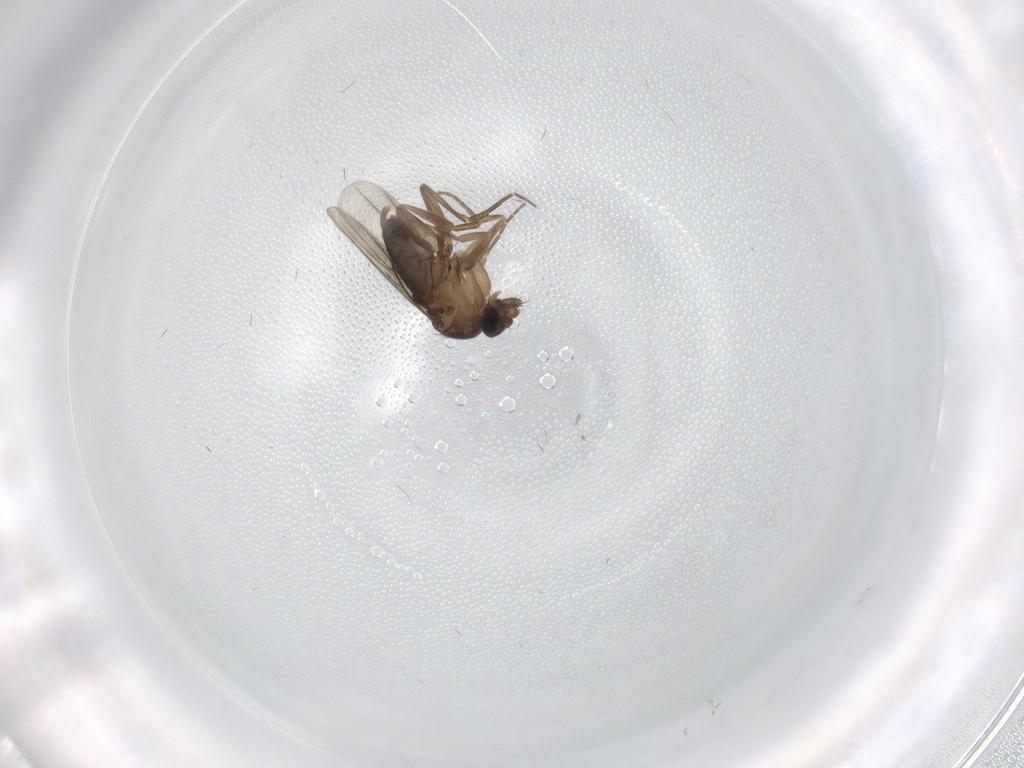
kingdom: Animalia
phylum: Arthropoda
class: Insecta
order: Diptera
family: Phoridae
